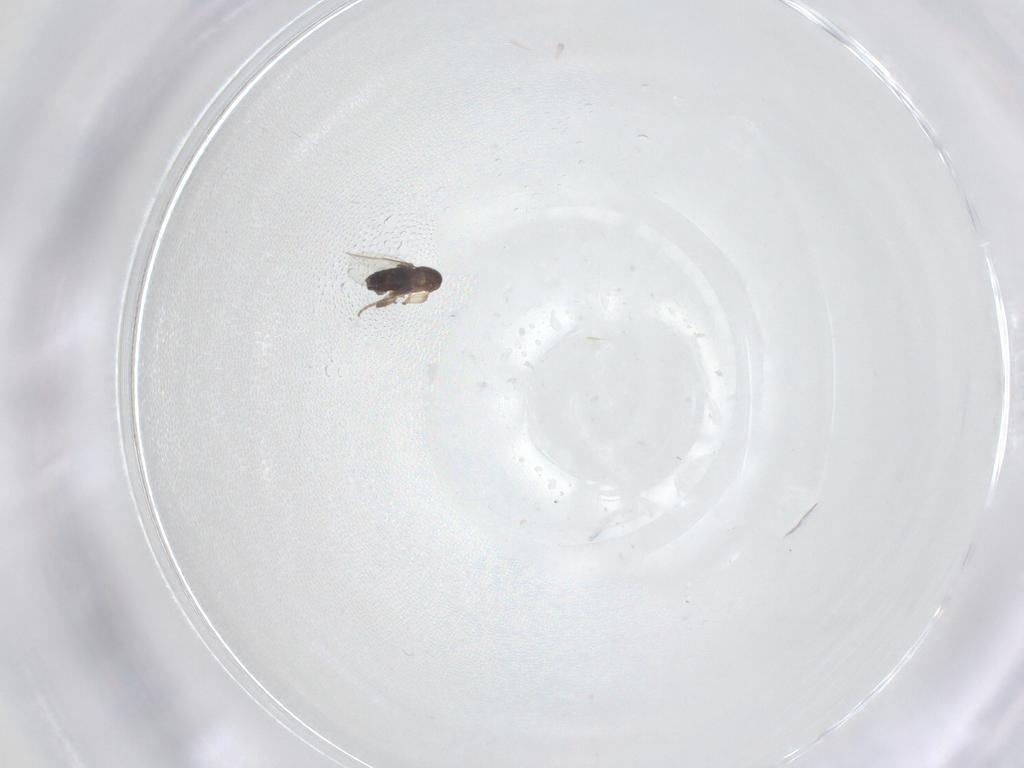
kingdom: Animalia
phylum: Arthropoda
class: Insecta
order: Diptera
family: Phoridae
